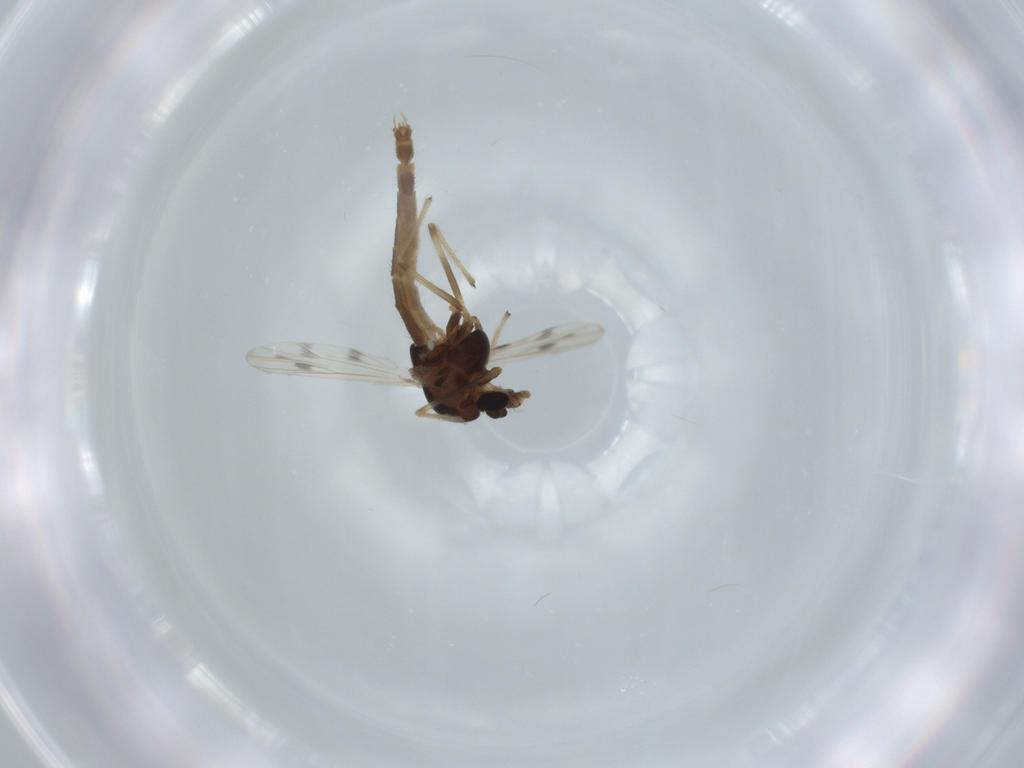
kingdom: Animalia
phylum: Arthropoda
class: Insecta
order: Diptera
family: Chironomidae
